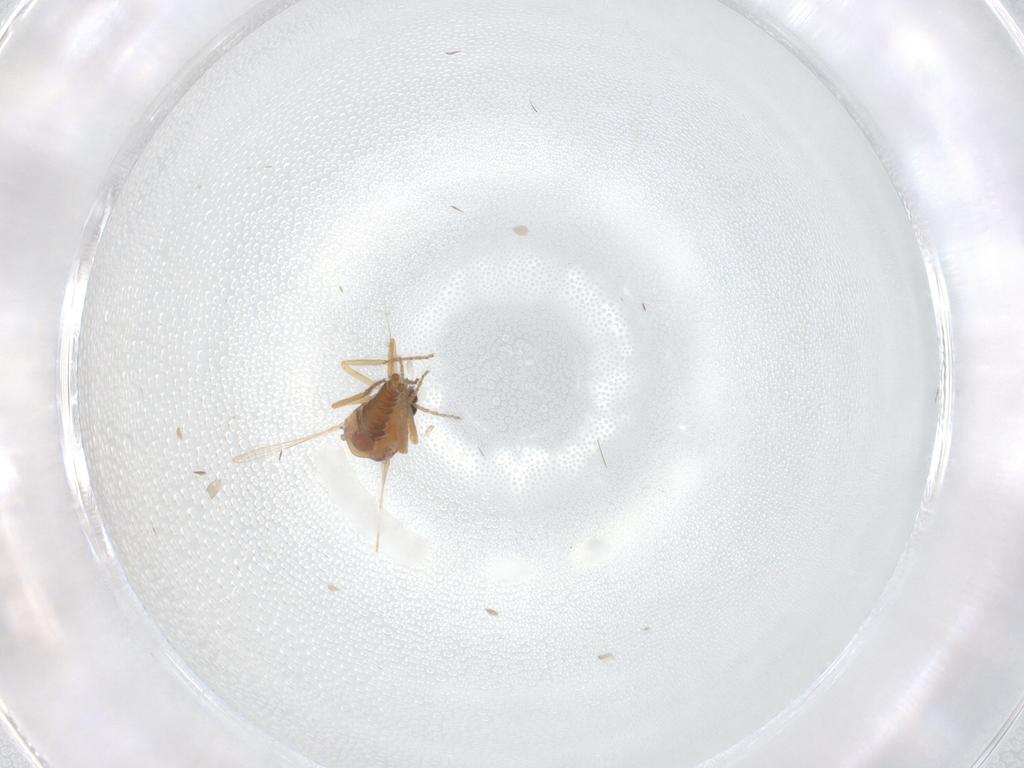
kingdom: Animalia
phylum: Arthropoda
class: Insecta
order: Diptera
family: Ceratopogonidae
